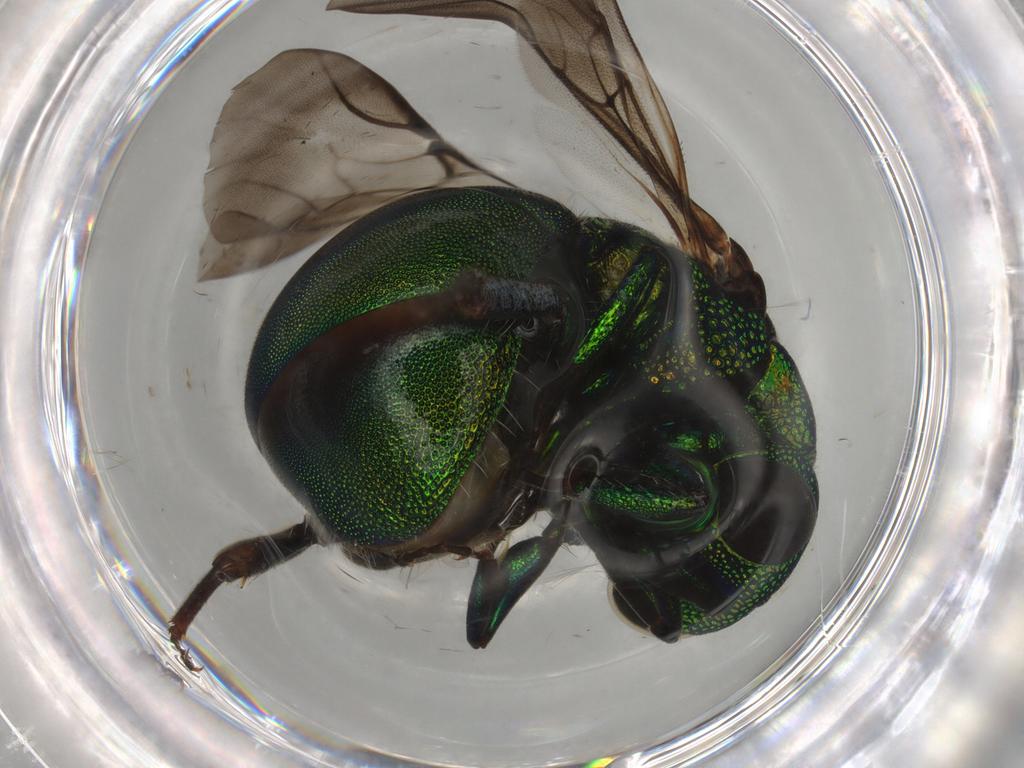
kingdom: Animalia
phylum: Arthropoda
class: Insecta
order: Hymenoptera
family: Chrysididae
